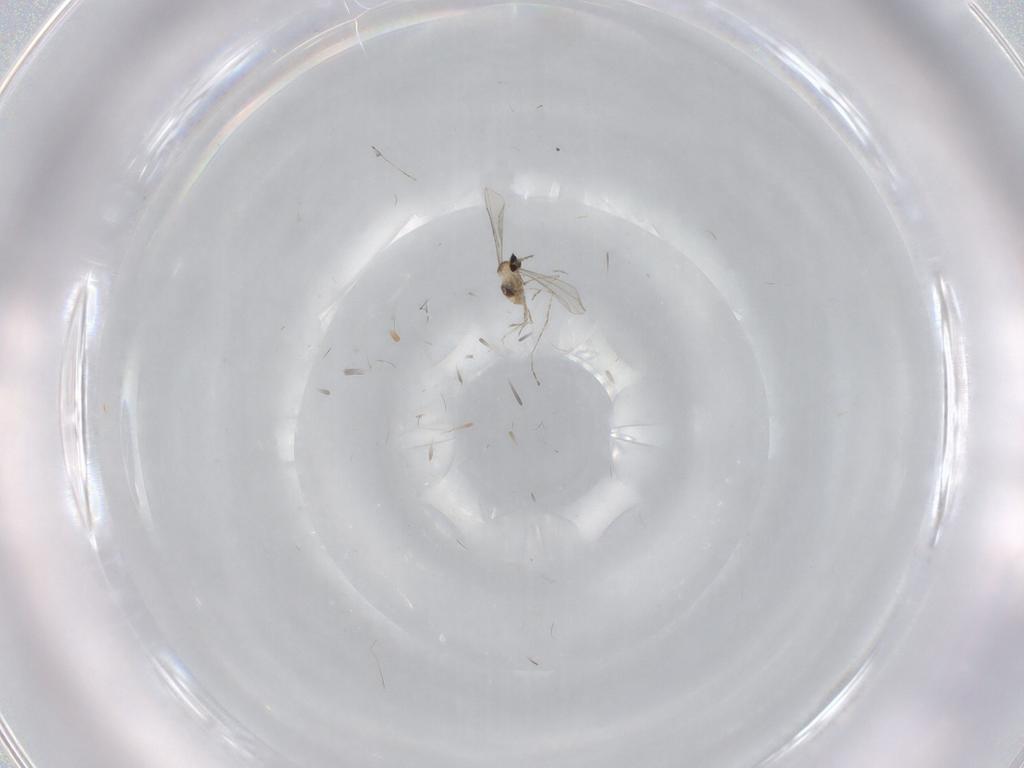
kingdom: Animalia
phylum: Arthropoda
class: Insecta
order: Diptera
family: Cecidomyiidae
